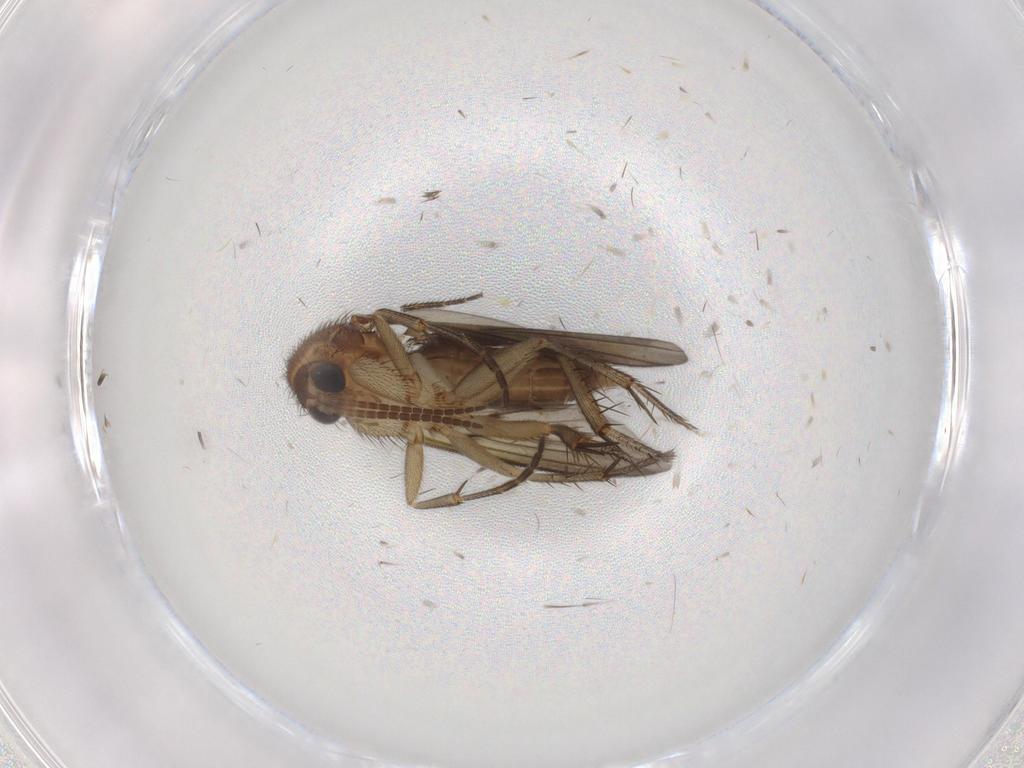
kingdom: Animalia
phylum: Arthropoda
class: Insecta
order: Diptera
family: Mycetophilidae
